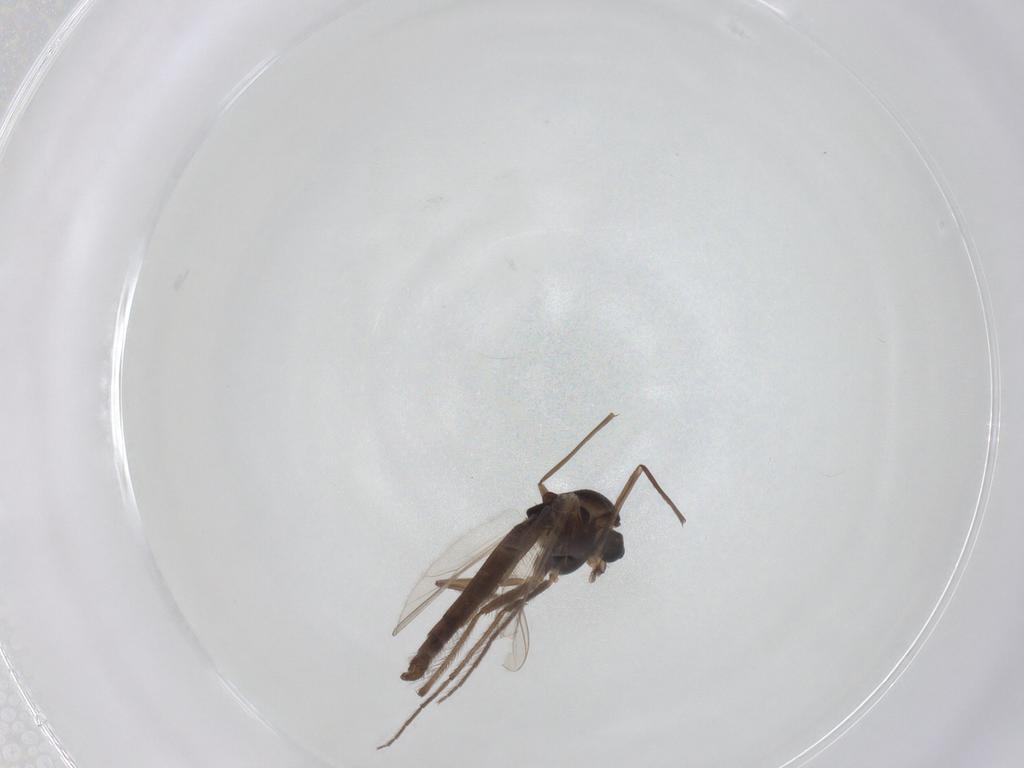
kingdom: Animalia
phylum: Arthropoda
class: Insecta
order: Diptera
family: Chironomidae
